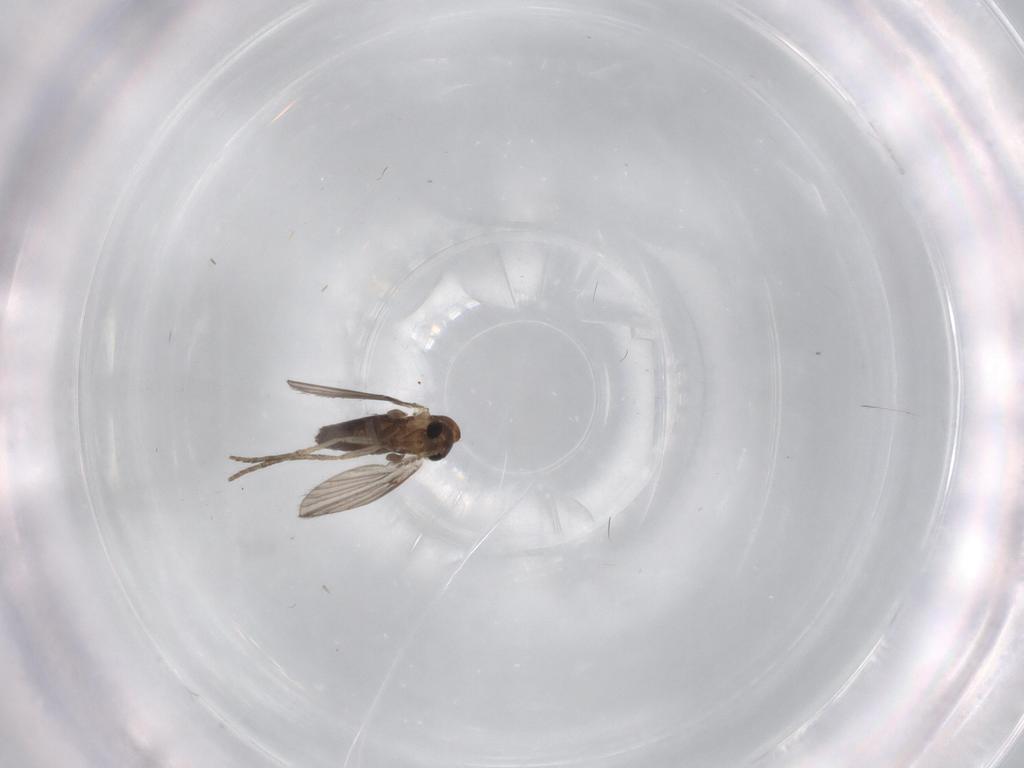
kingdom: Animalia
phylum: Arthropoda
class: Insecta
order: Diptera
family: Psychodidae
